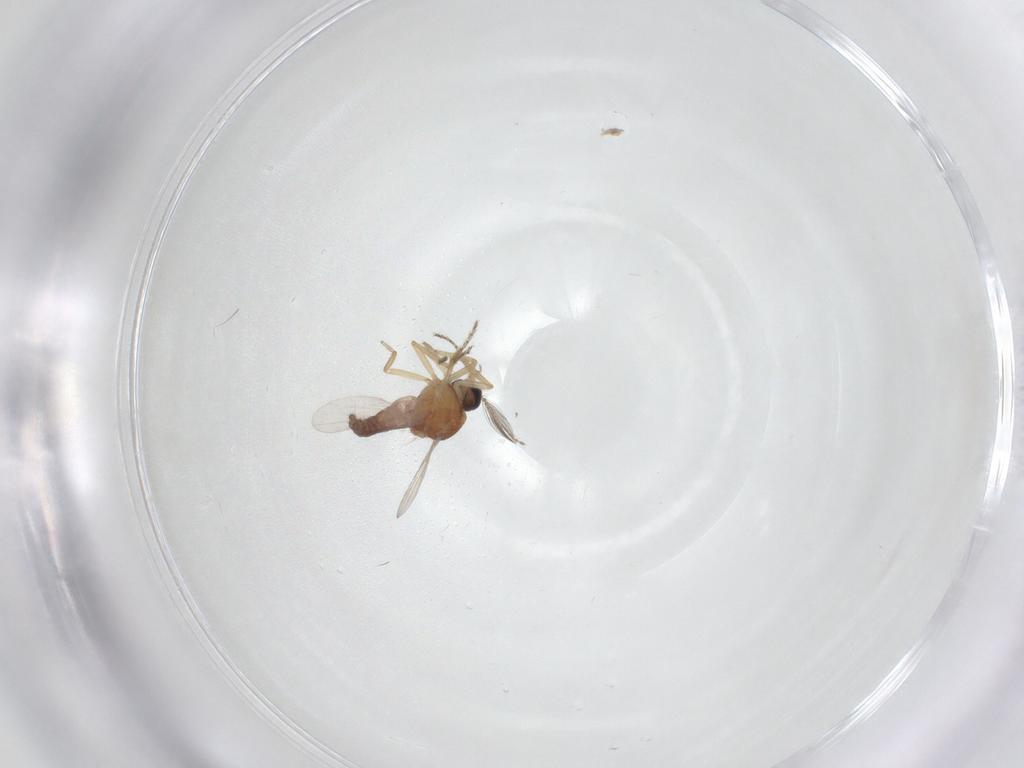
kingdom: Animalia
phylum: Arthropoda
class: Insecta
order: Diptera
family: Ceratopogonidae
